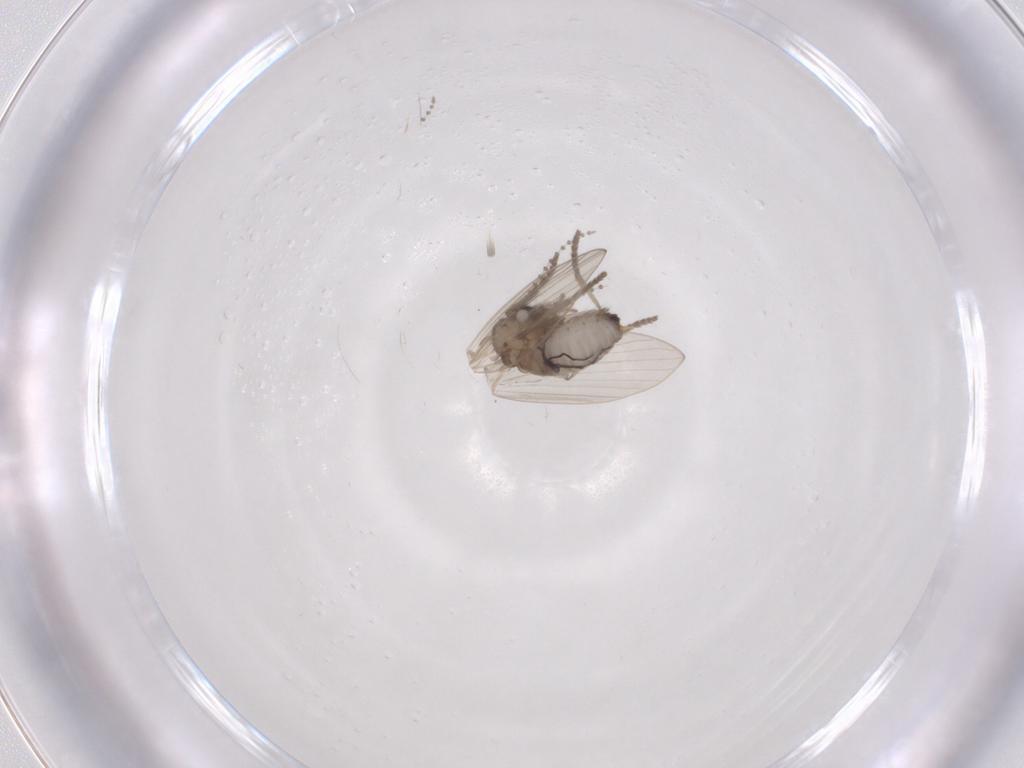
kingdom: Animalia
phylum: Arthropoda
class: Insecta
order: Diptera
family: Psychodidae
